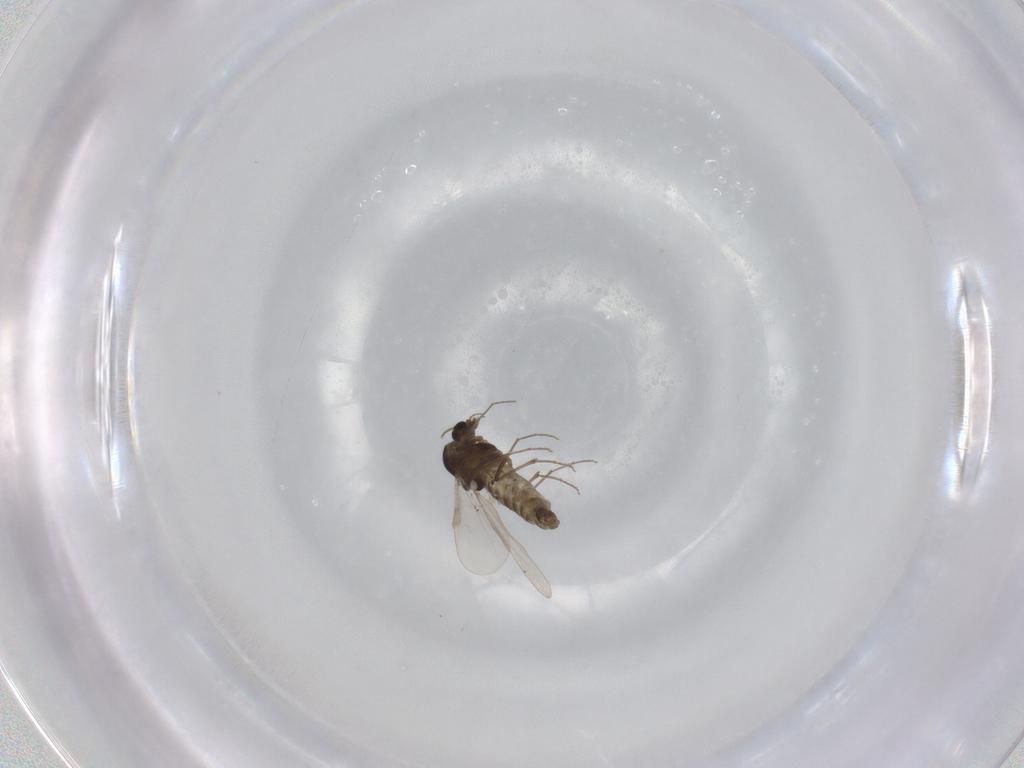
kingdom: Animalia
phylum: Arthropoda
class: Insecta
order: Diptera
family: Chironomidae
